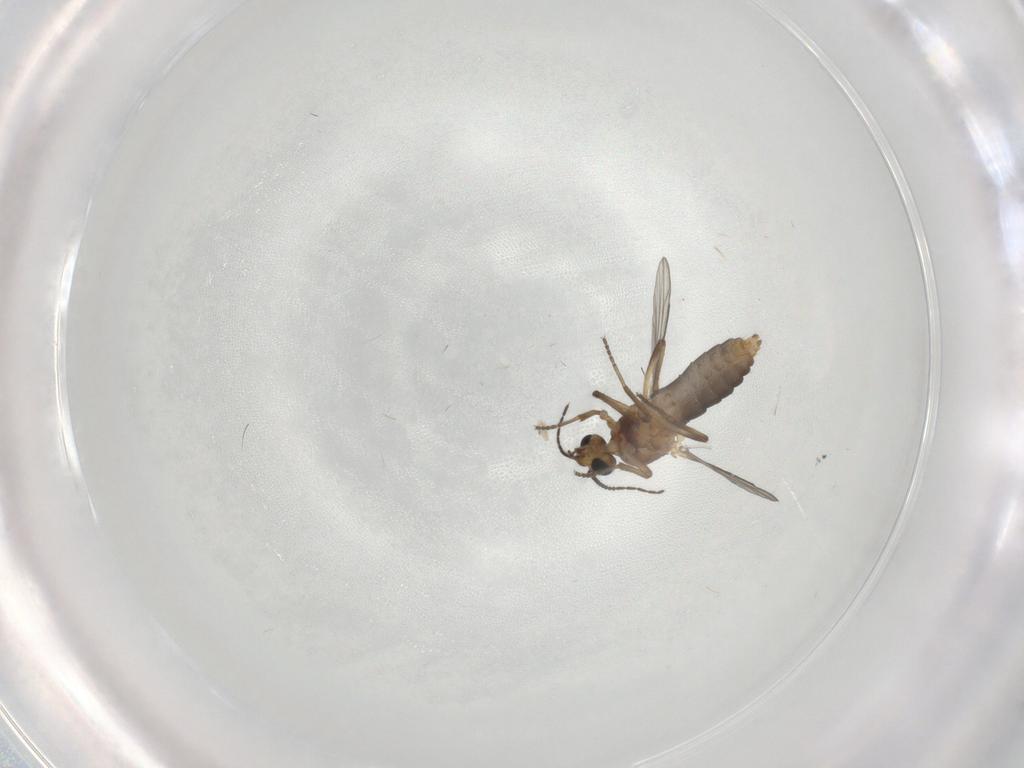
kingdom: Animalia
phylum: Arthropoda
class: Insecta
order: Diptera
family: Ceratopogonidae
